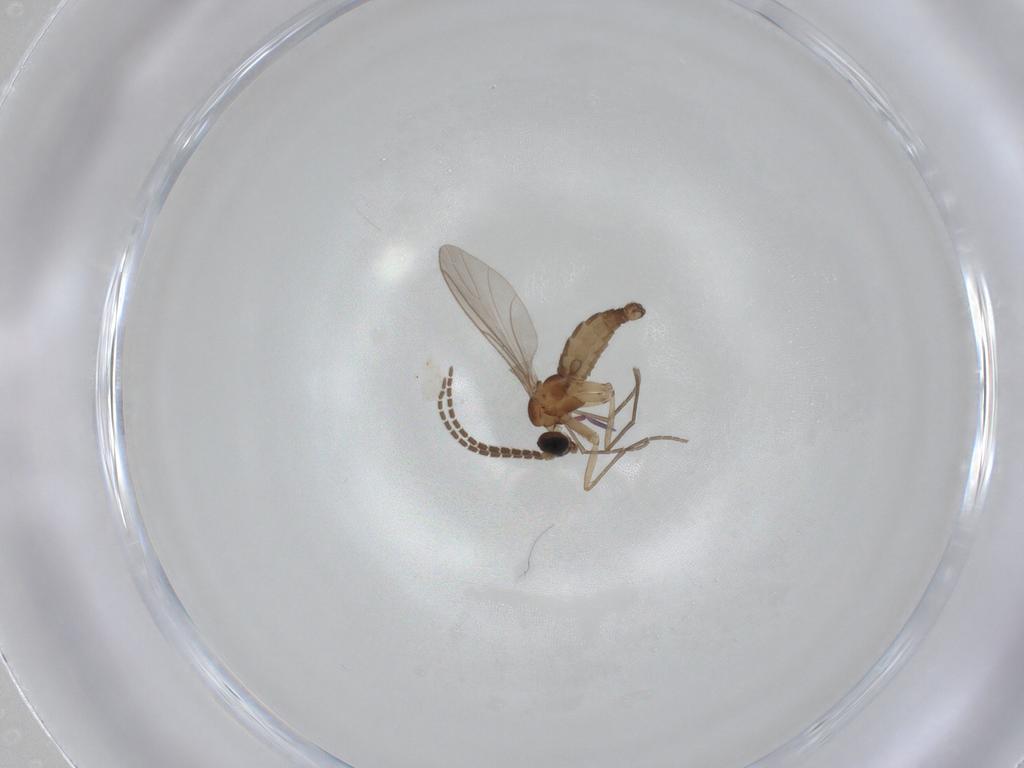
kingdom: Animalia
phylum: Arthropoda
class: Insecta
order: Diptera
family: Sciaridae
